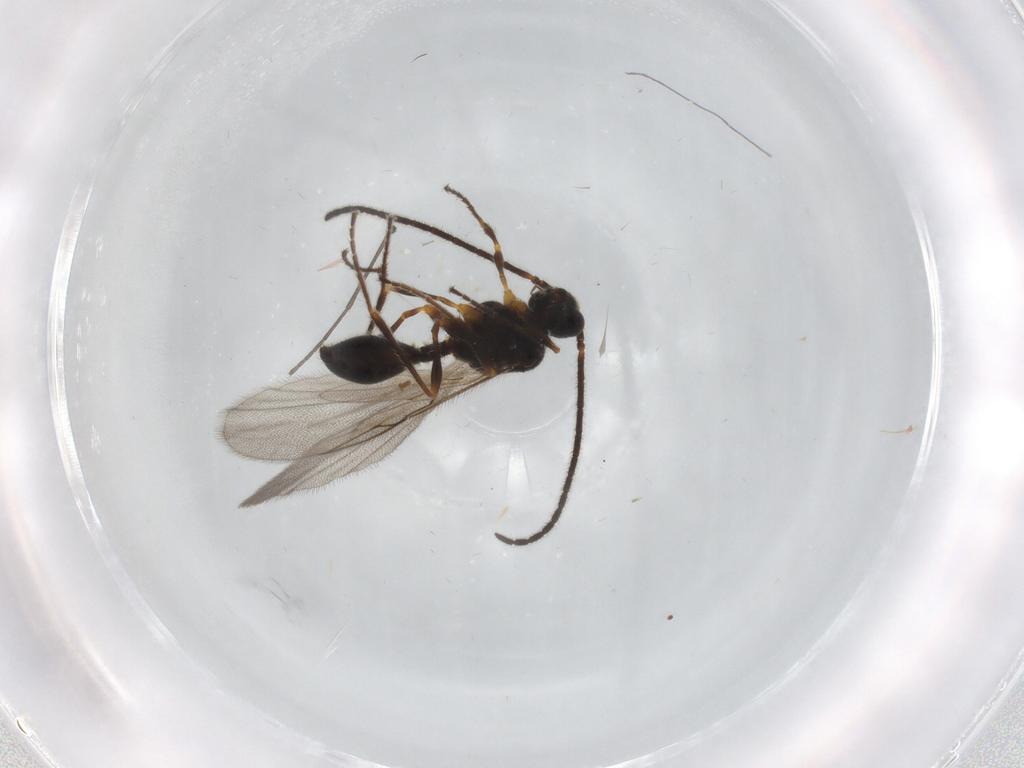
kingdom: Animalia
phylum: Arthropoda
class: Insecta
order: Hymenoptera
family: Diapriidae
